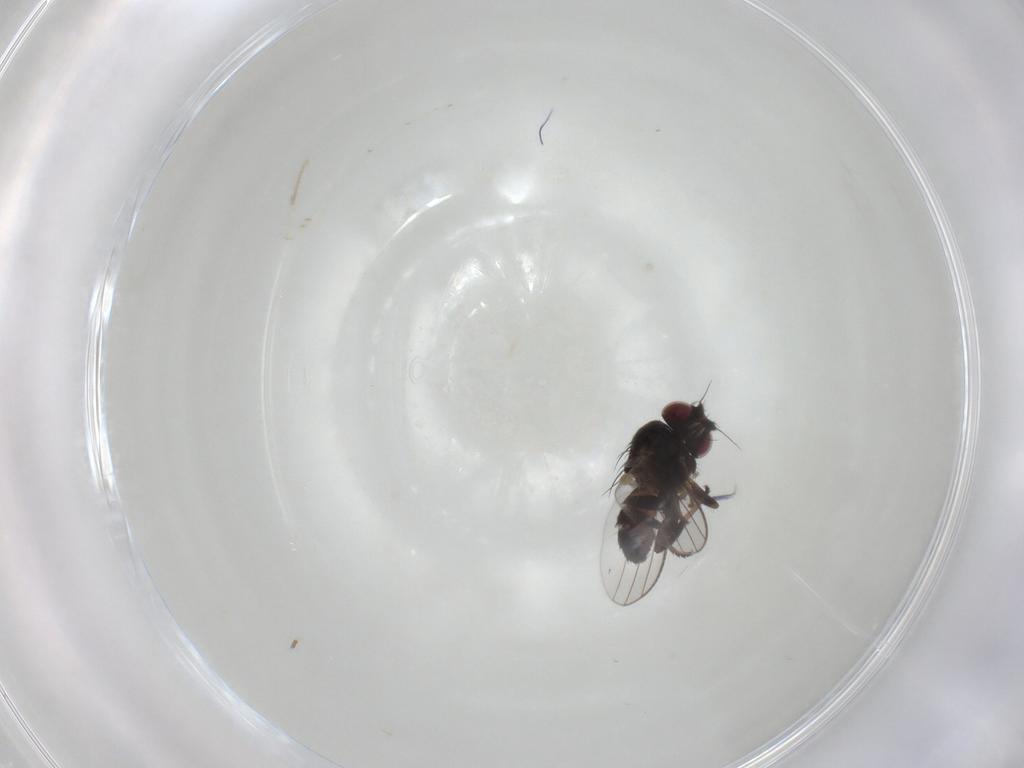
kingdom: Animalia
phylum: Arthropoda
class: Insecta
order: Diptera
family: Milichiidae
